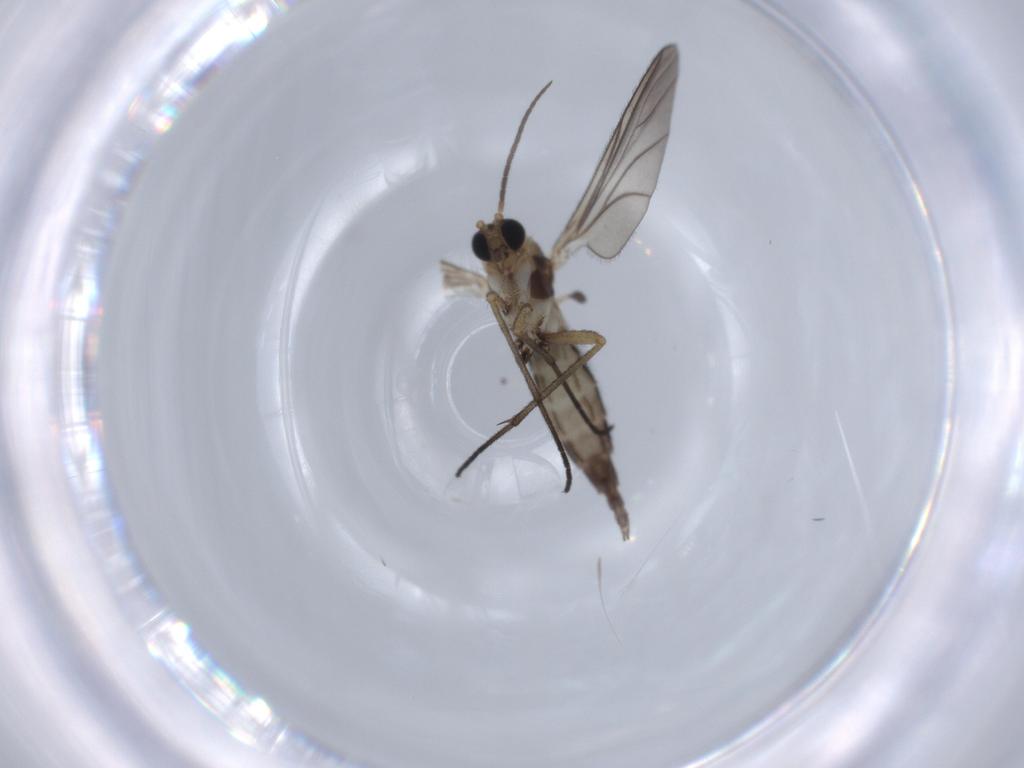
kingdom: Animalia
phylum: Arthropoda
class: Insecta
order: Diptera
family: Sciaridae
